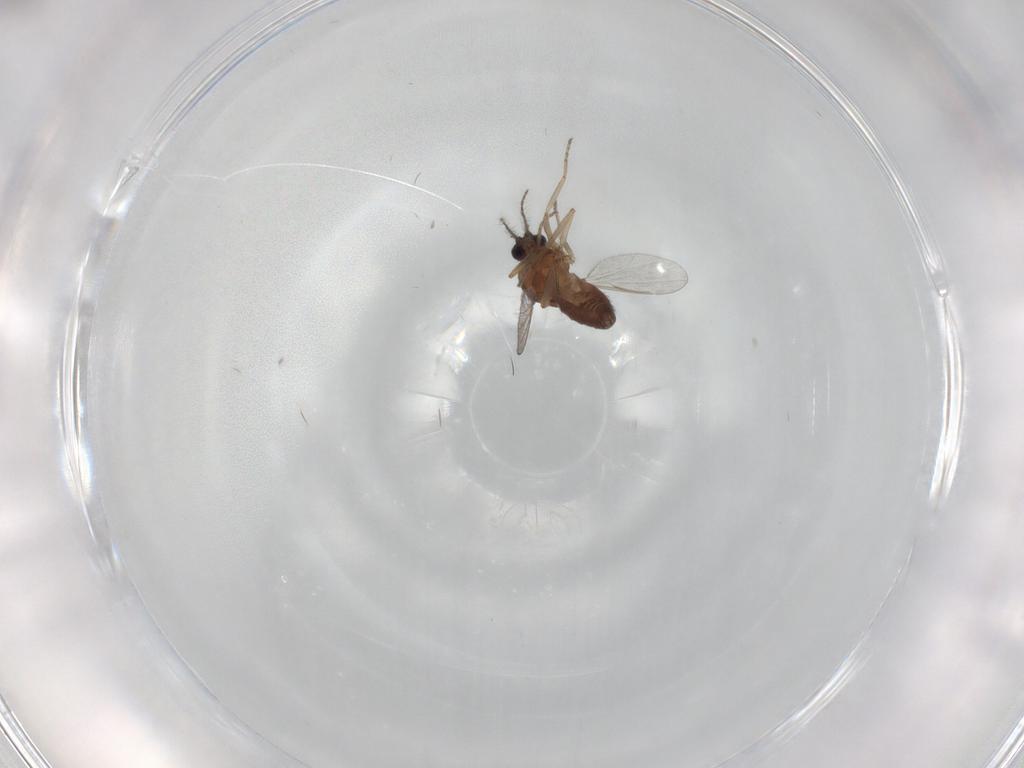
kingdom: Animalia
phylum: Arthropoda
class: Insecta
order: Diptera
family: Ceratopogonidae
